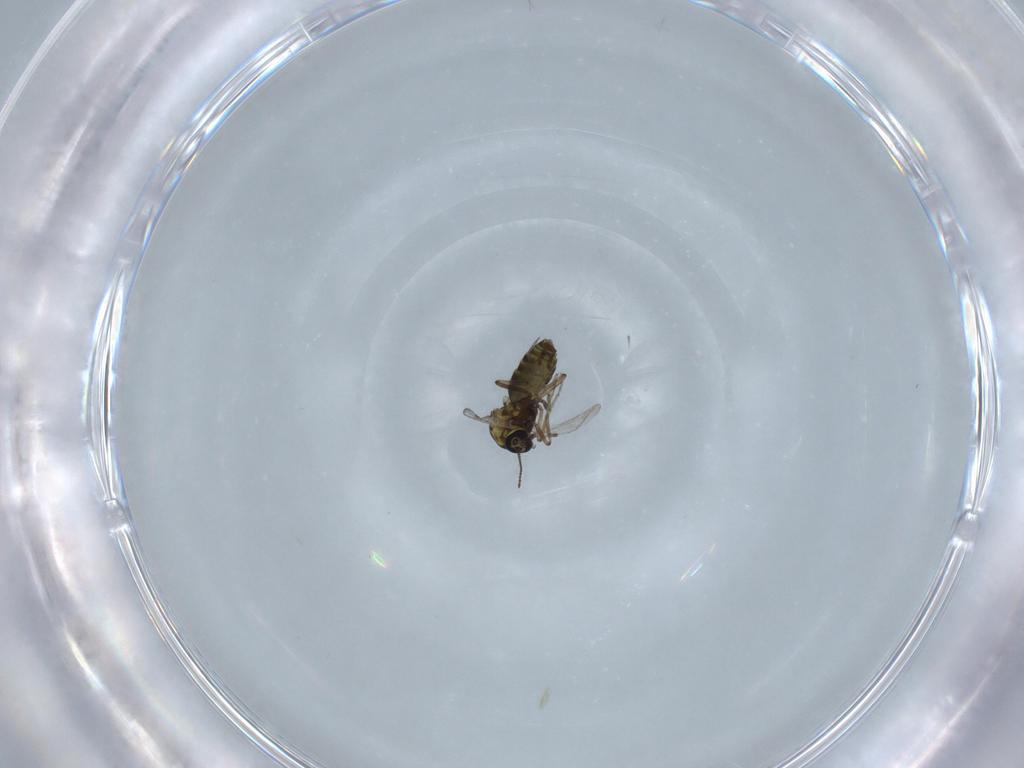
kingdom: Animalia
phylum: Arthropoda
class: Insecta
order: Diptera
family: Ceratopogonidae
